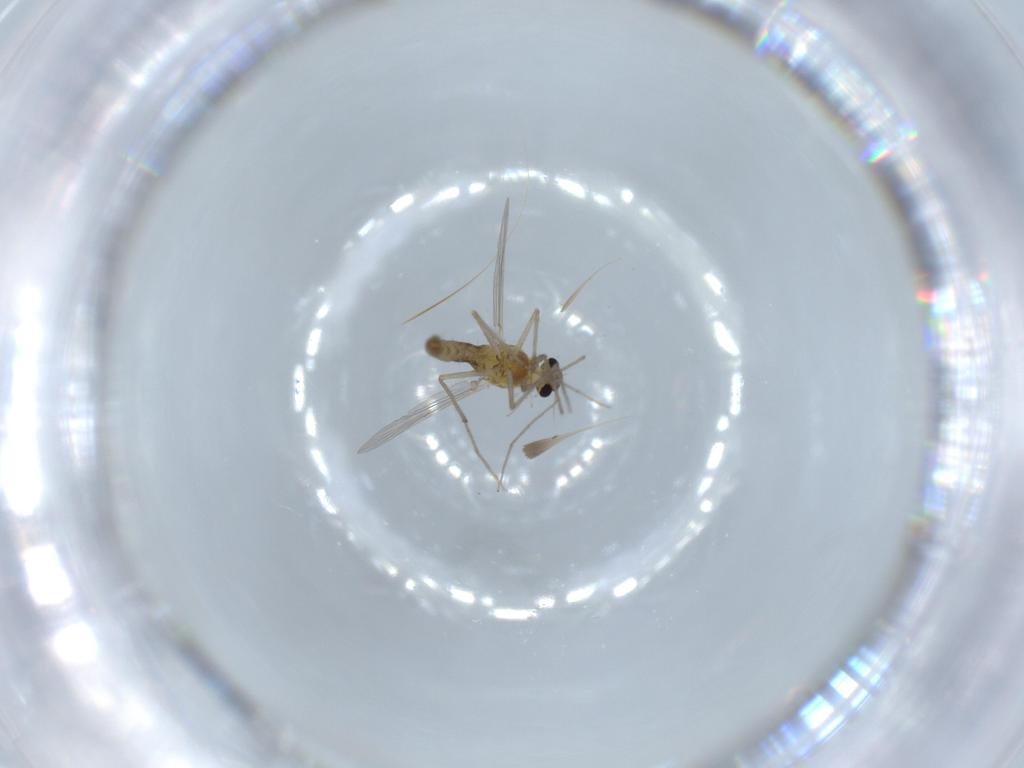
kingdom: Animalia
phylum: Arthropoda
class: Insecta
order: Diptera
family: Chironomidae
